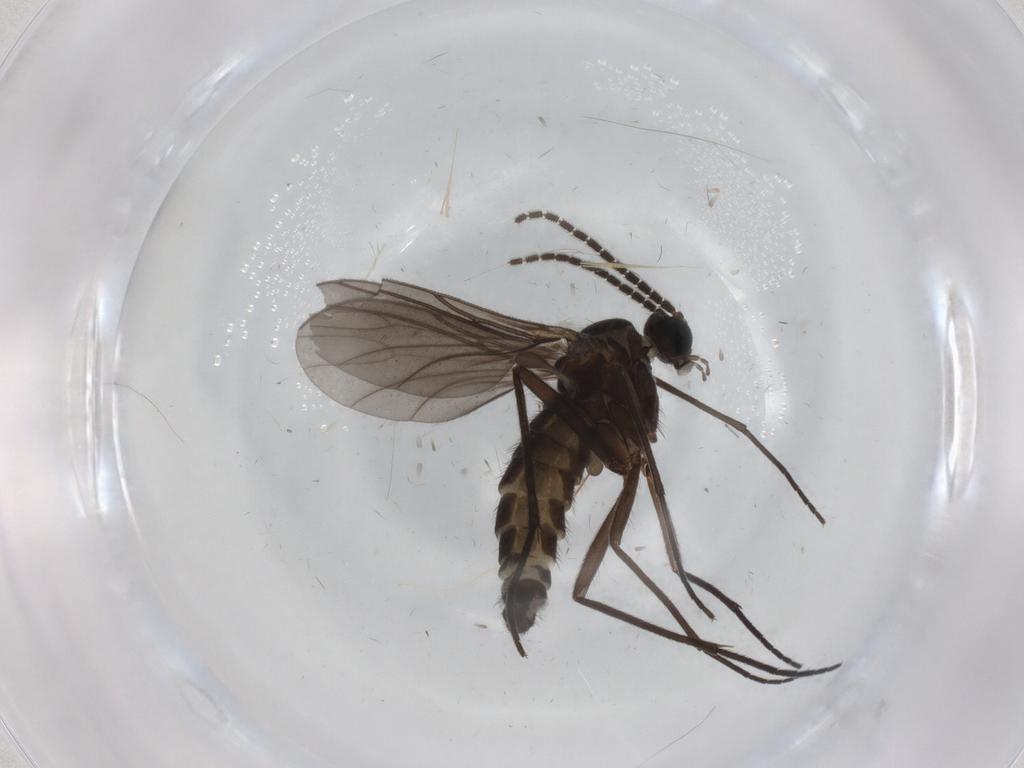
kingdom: Animalia
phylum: Arthropoda
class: Insecta
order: Diptera
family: Sciaridae
